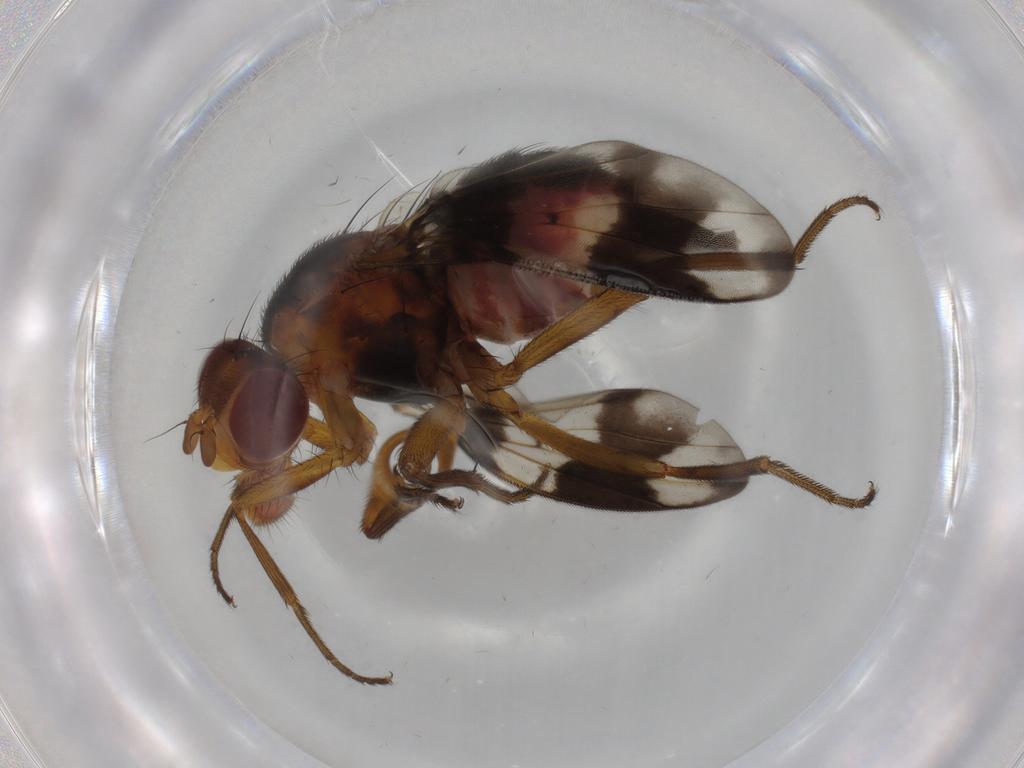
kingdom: Animalia
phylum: Arthropoda
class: Insecta
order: Diptera
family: Richardiidae
